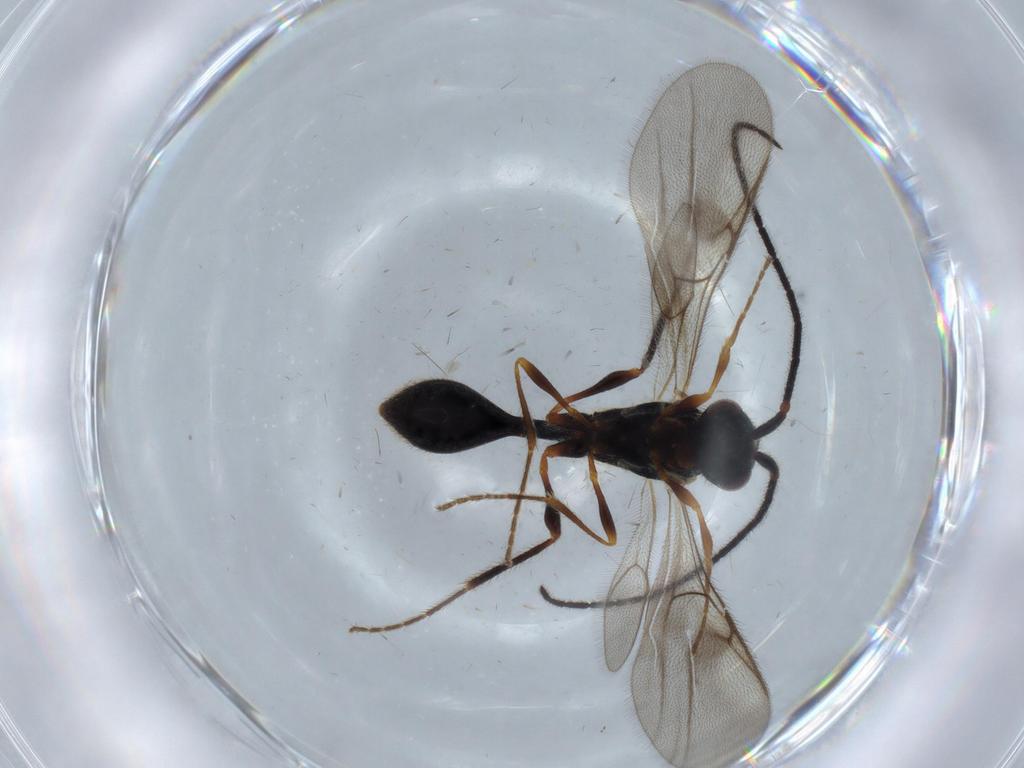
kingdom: Animalia
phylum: Arthropoda
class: Insecta
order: Hymenoptera
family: Diapriidae
